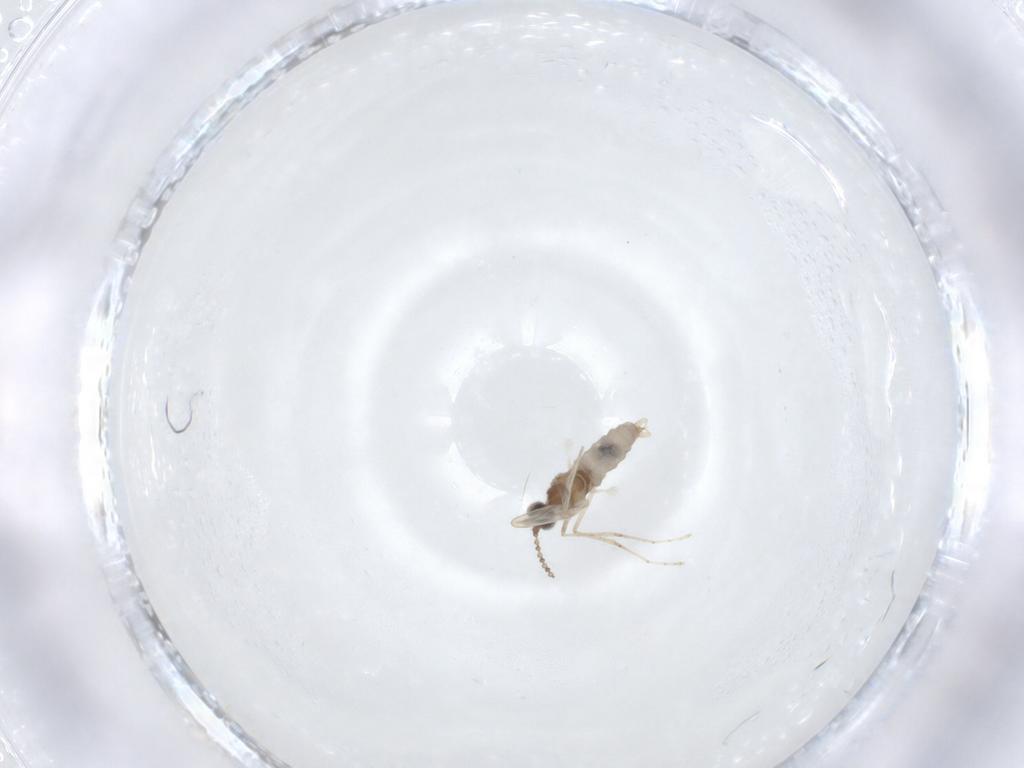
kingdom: Animalia
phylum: Arthropoda
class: Insecta
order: Diptera
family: Cecidomyiidae
